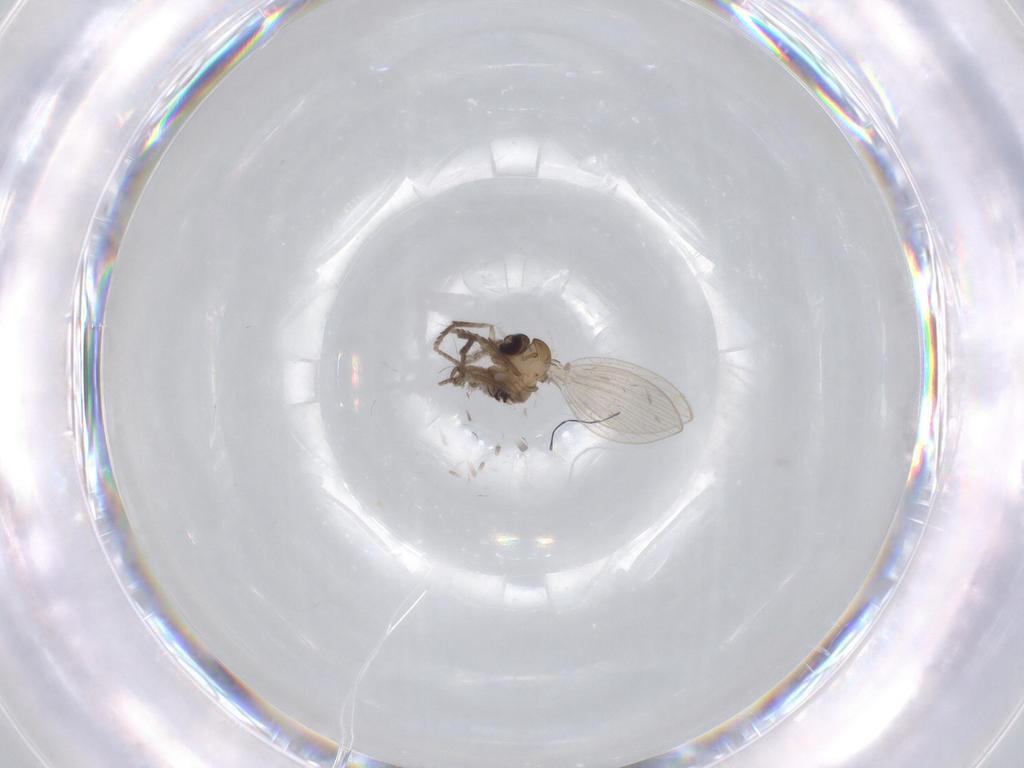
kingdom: Animalia
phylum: Arthropoda
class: Insecta
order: Diptera
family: Psychodidae
